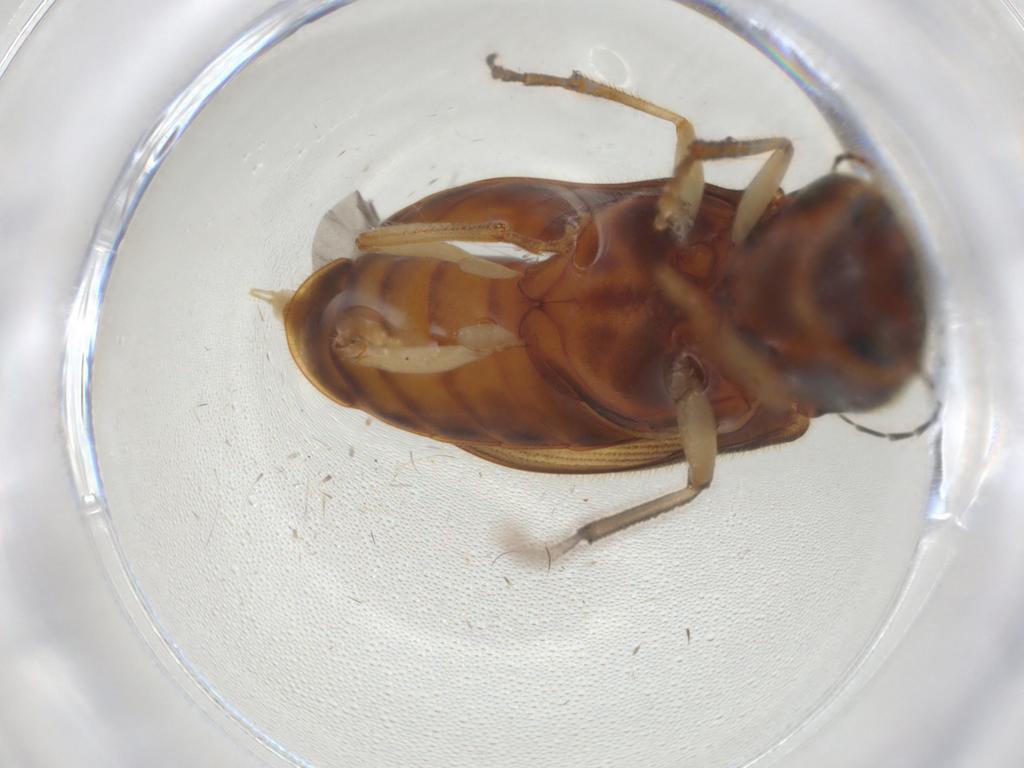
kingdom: Animalia
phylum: Arthropoda
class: Insecta
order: Coleoptera
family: Elateridae
